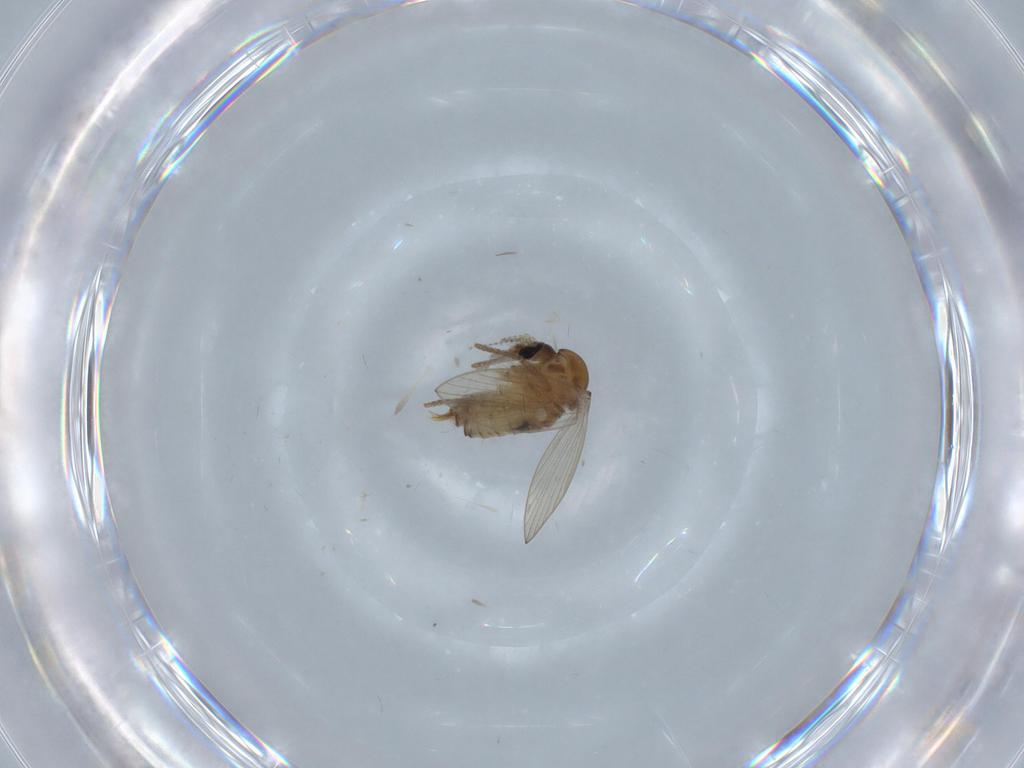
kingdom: Animalia
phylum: Arthropoda
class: Insecta
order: Diptera
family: Psychodidae
